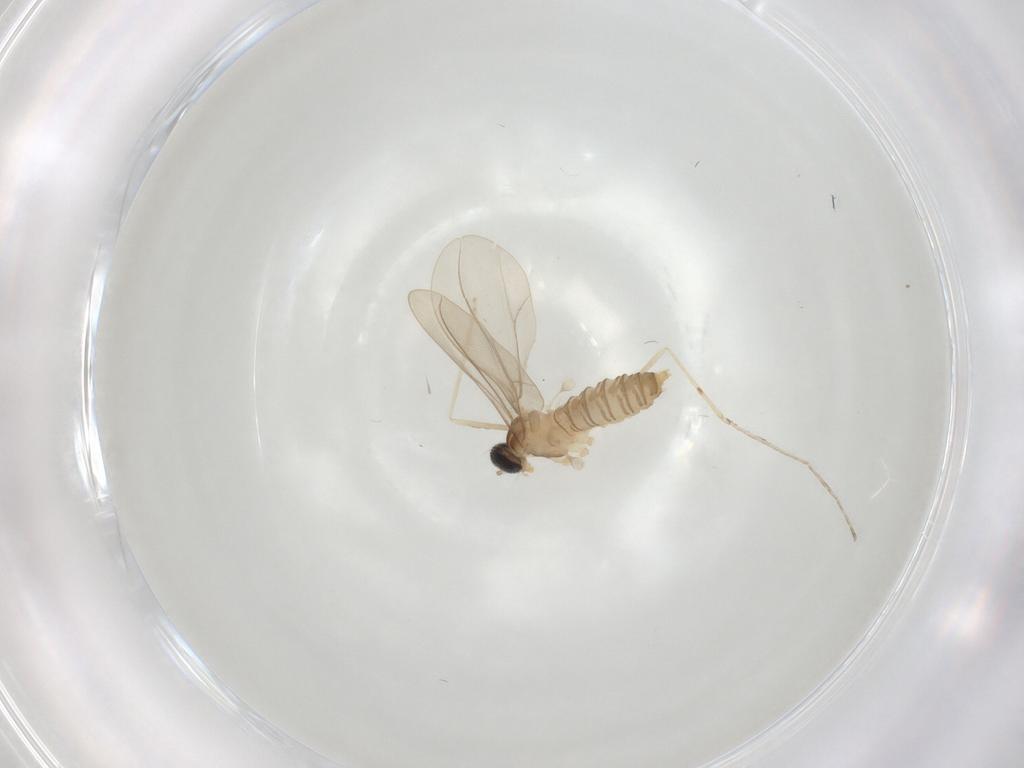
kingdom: Animalia
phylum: Arthropoda
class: Insecta
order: Diptera
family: Cecidomyiidae
